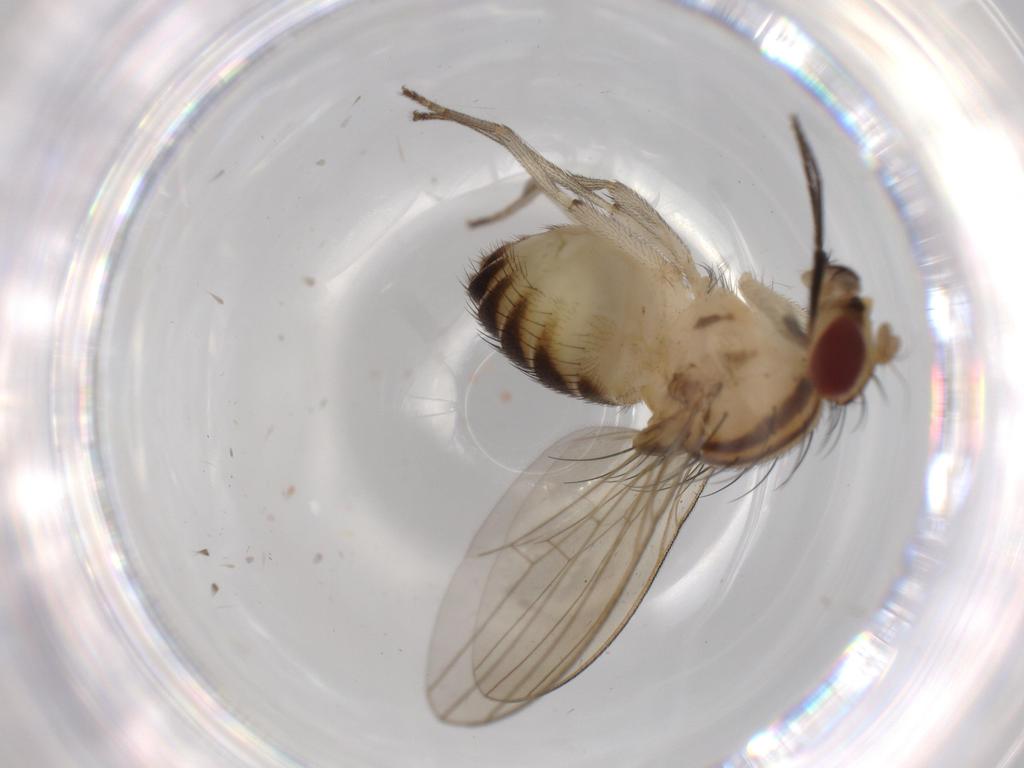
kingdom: Animalia
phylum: Arthropoda
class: Insecta
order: Diptera
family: Lauxaniidae
